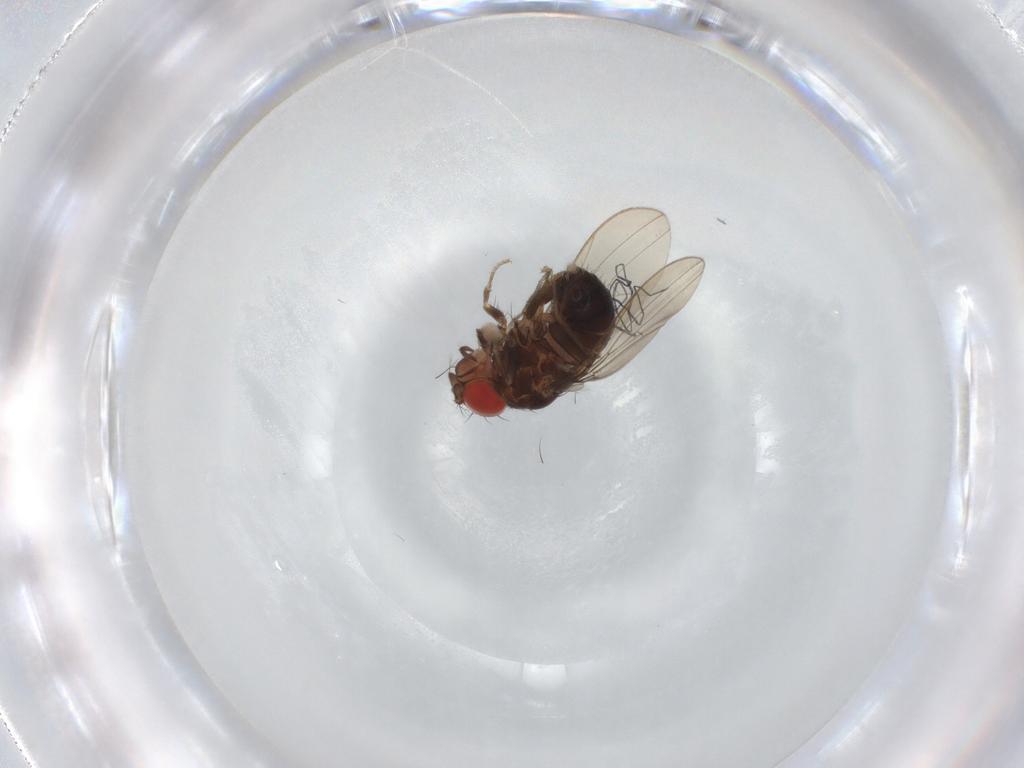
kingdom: Animalia
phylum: Arthropoda
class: Insecta
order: Diptera
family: Drosophilidae
